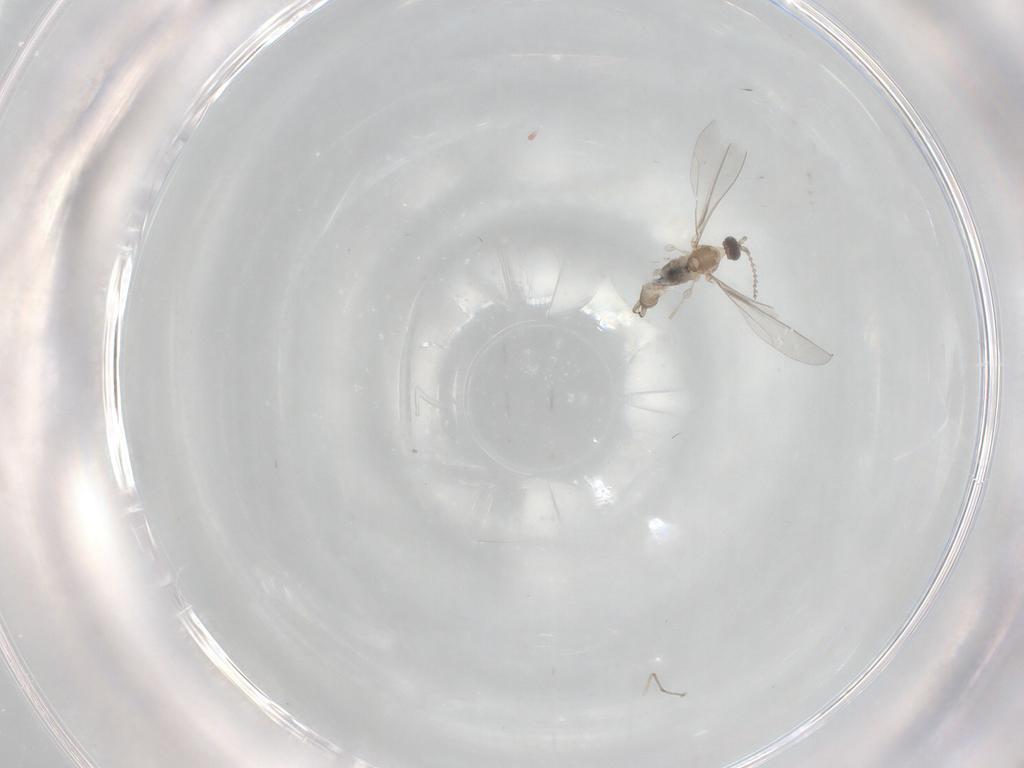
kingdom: Animalia
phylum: Arthropoda
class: Insecta
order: Diptera
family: Cecidomyiidae
